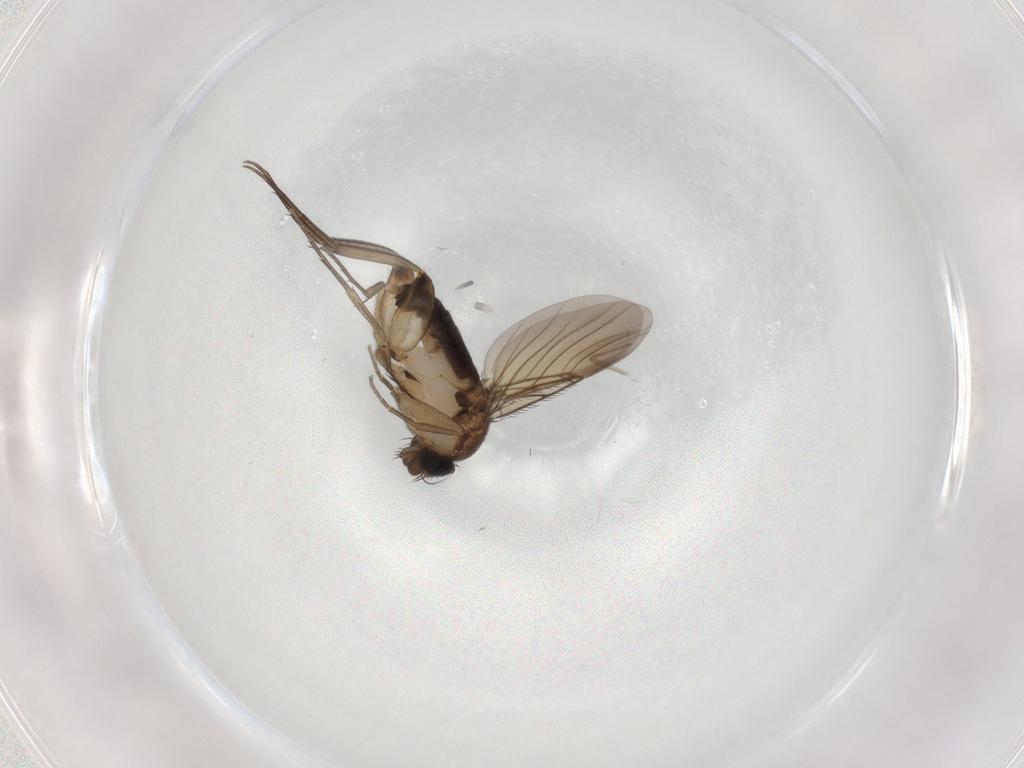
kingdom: Animalia
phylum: Arthropoda
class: Insecta
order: Diptera
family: Phoridae
